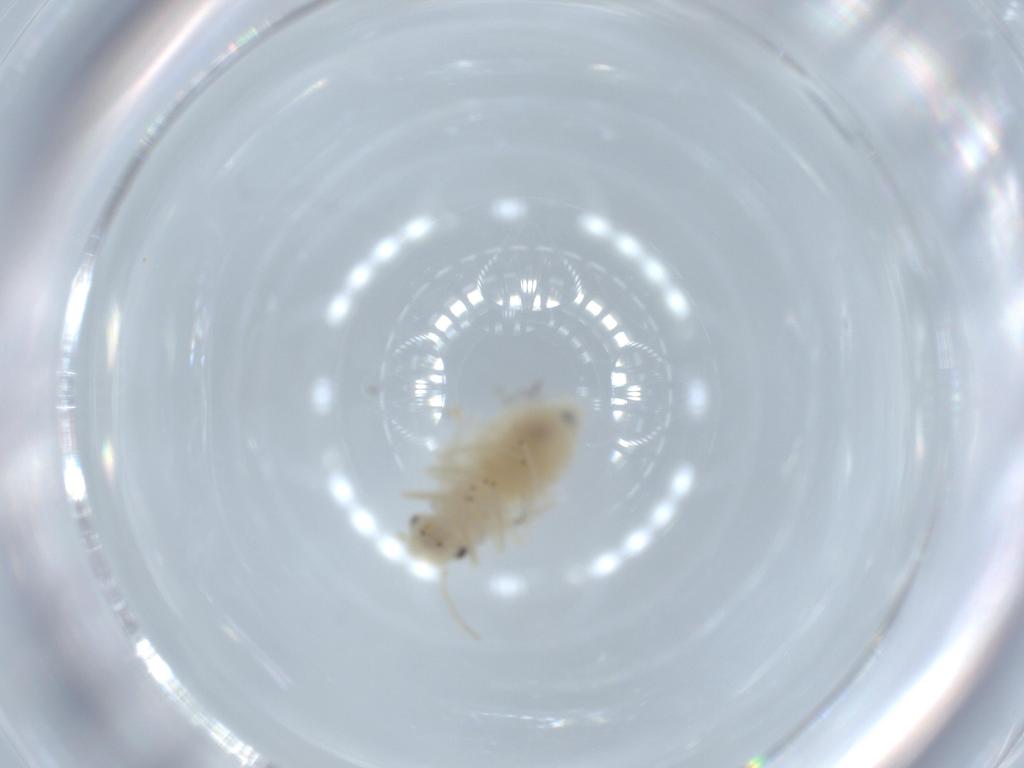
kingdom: Animalia
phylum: Arthropoda
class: Insecta
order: Psocodea
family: Caeciliusidae
